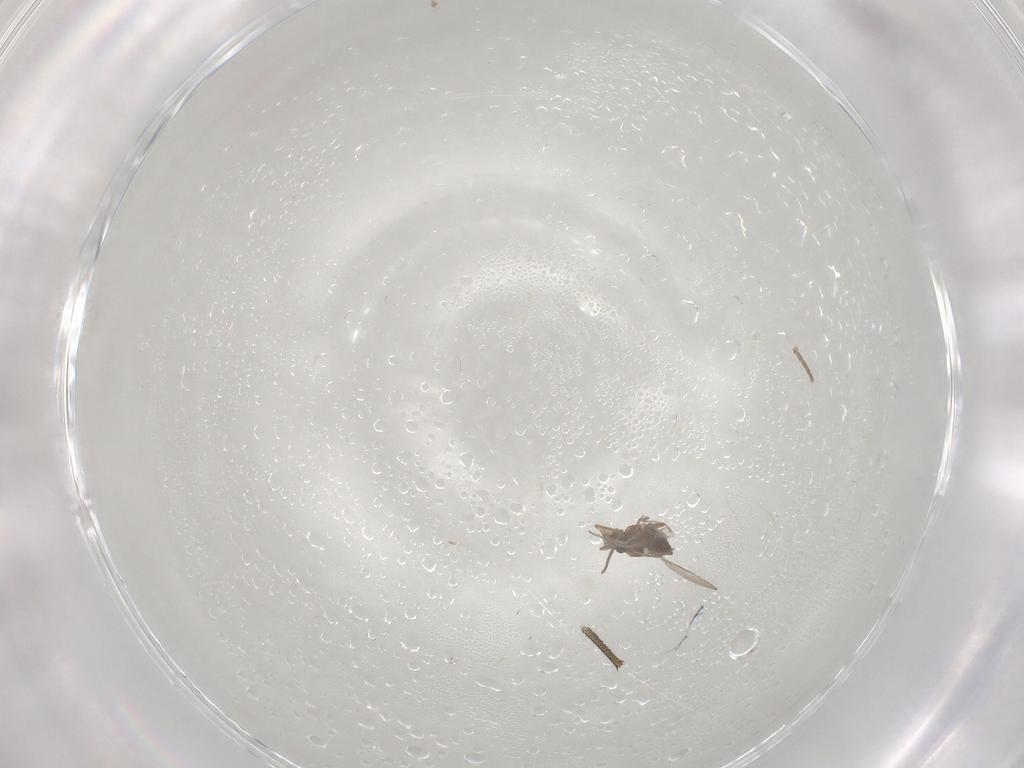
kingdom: Animalia
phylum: Arthropoda
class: Insecta
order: Diptera
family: Ceratopogonidae
